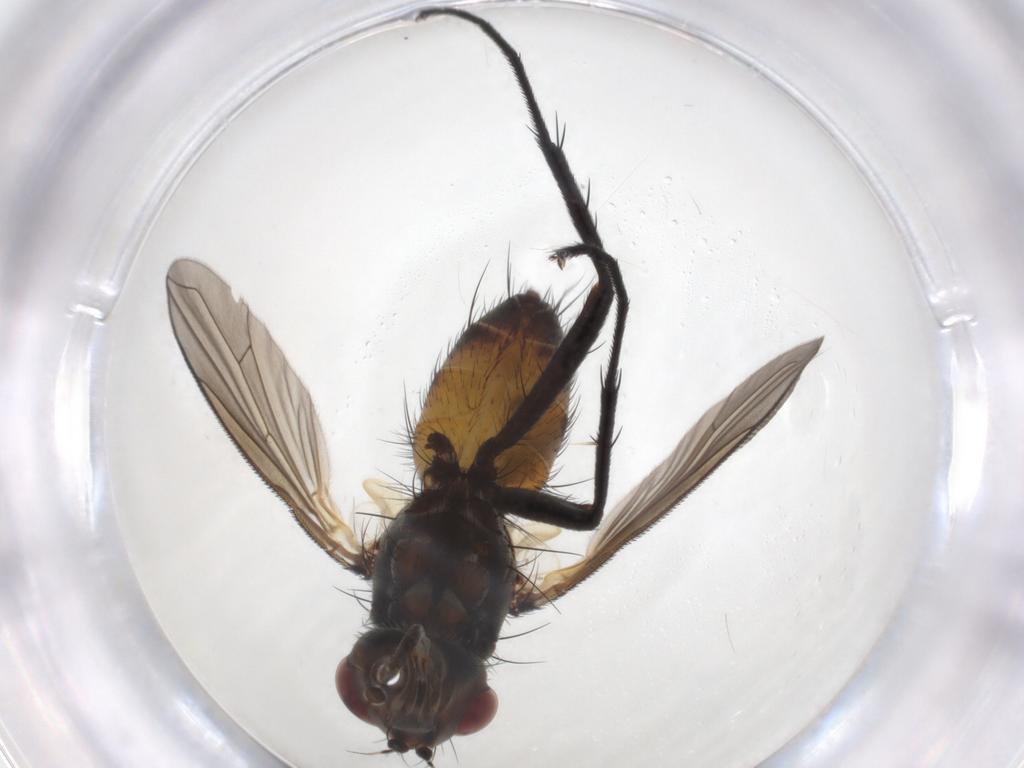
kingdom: Animalia
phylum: Arthropoda
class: Insecta
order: Diptera
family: Tachinidae
